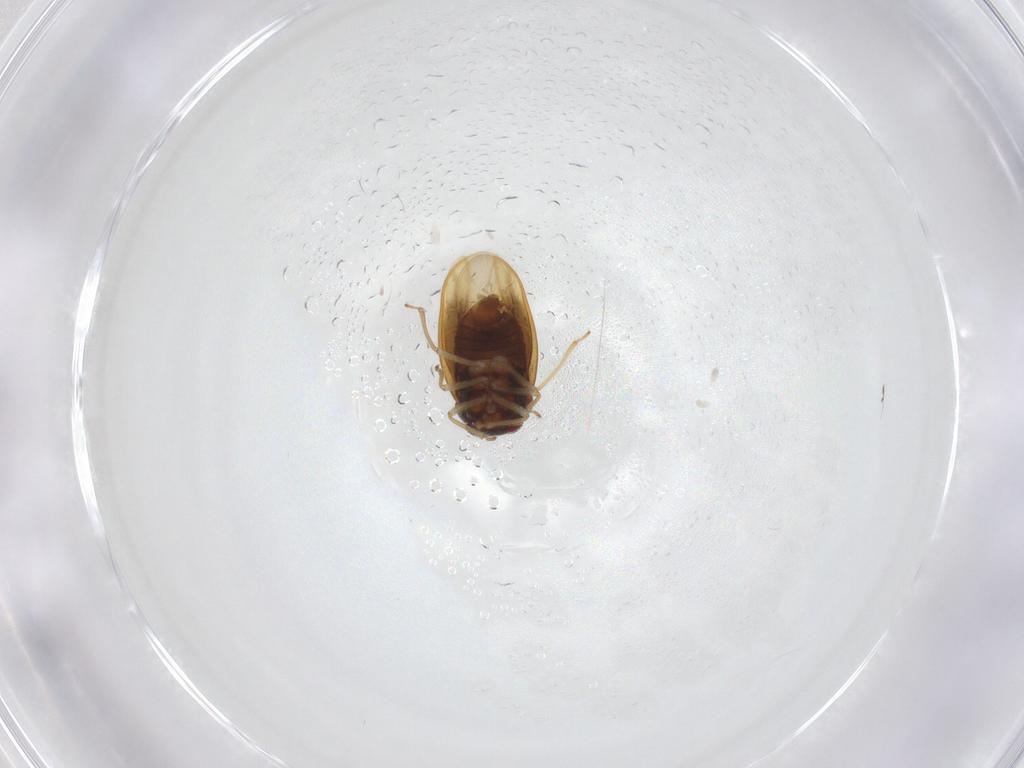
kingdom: Animalia
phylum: Arthropoda
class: Insecta
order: Hemiptera
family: Schizopteridae
